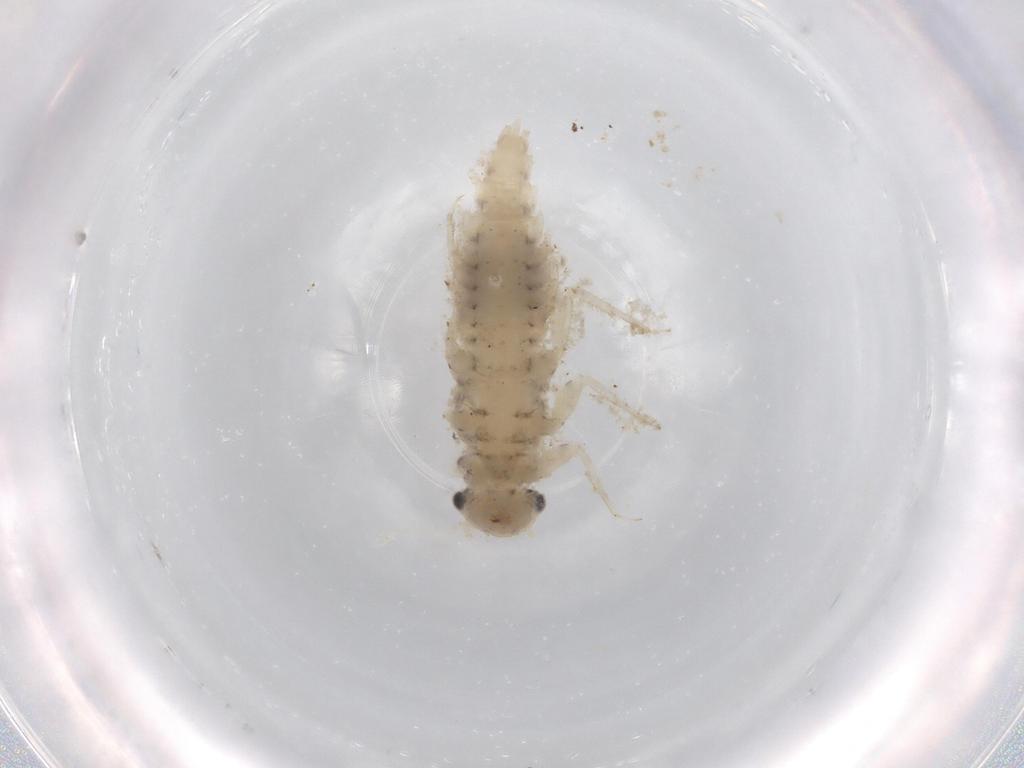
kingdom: Animalia
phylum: Arthropoda
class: Insecta
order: Ephemeroptera
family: Caenidae
